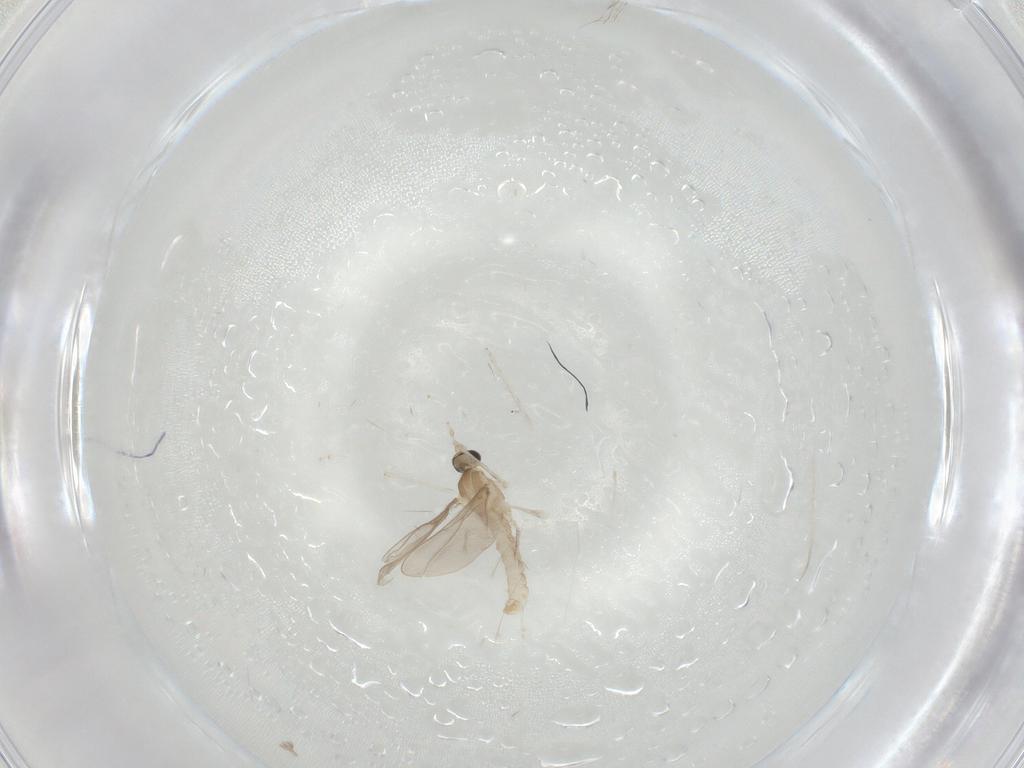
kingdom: Animalia
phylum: Arthropoda
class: Insecta
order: Diptera
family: Cecidomyiidae
